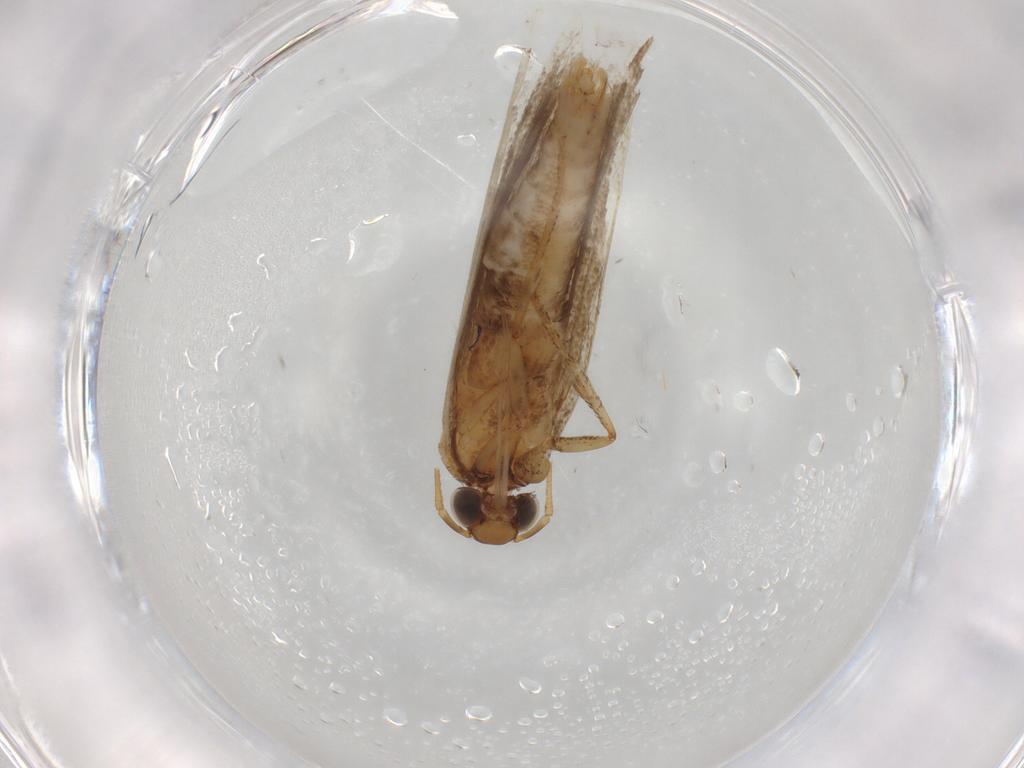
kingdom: Animalia
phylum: Arthropoda
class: Insecta
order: Lepidoptera
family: Gelechiidae
